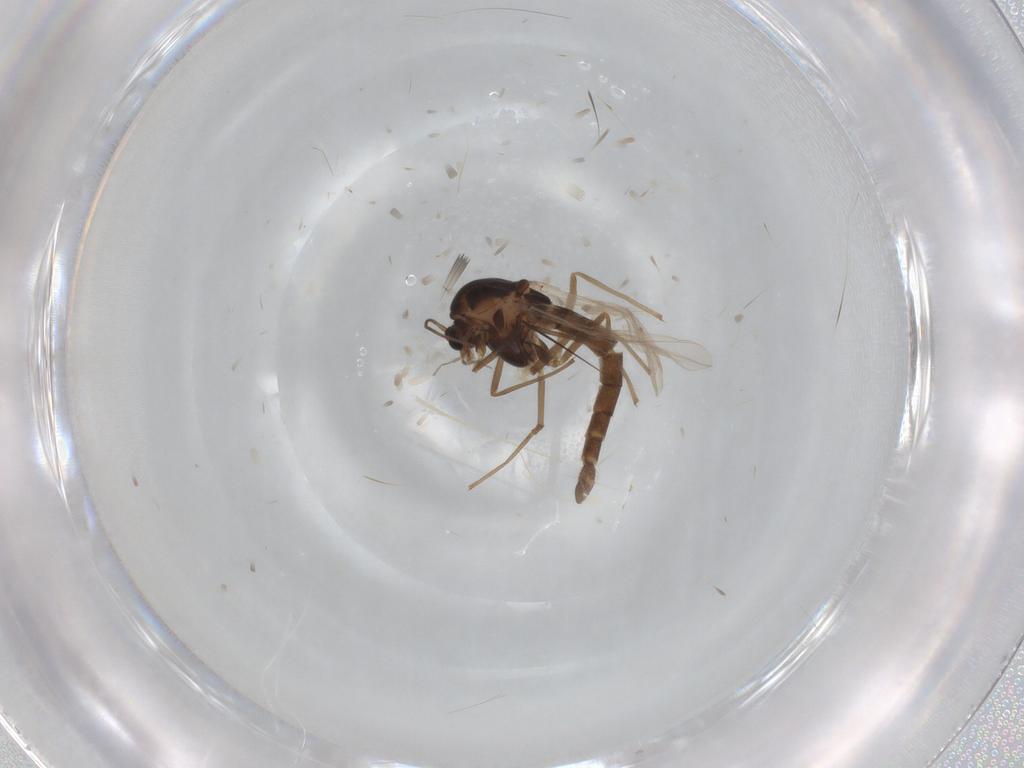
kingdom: Animalia
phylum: Arthropoda
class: Insecta
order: Diptera
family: Chironomidae
